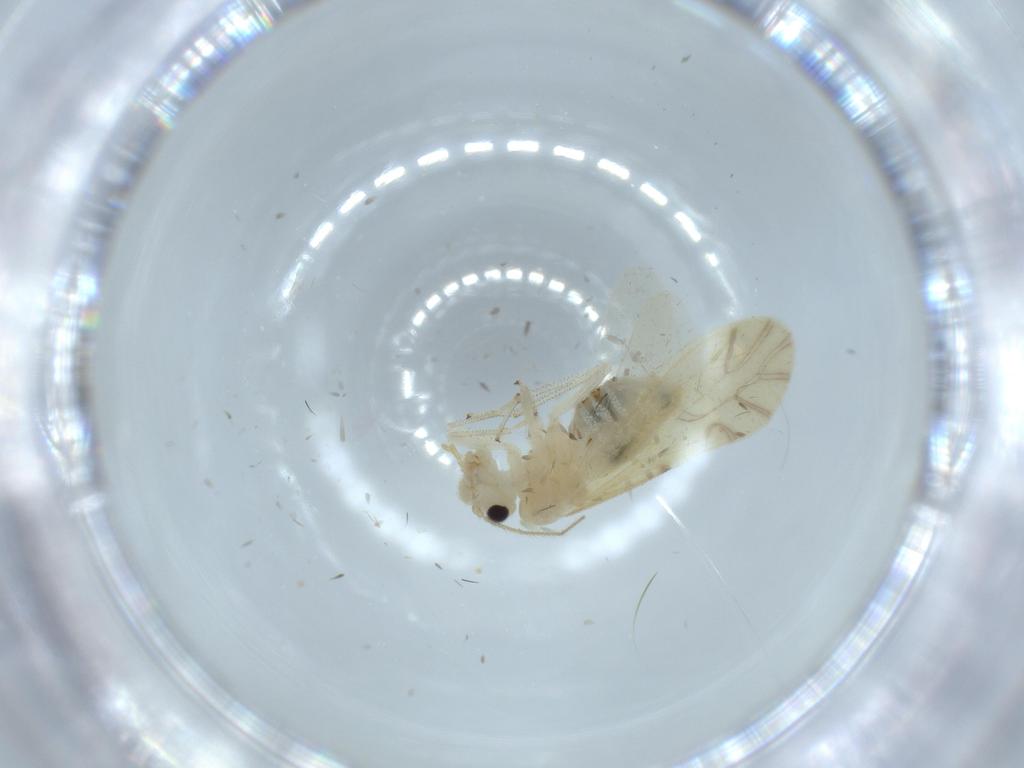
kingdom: Animalia
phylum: Arthropoda
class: Insecta
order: Psocodea
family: Caeciliusidae
